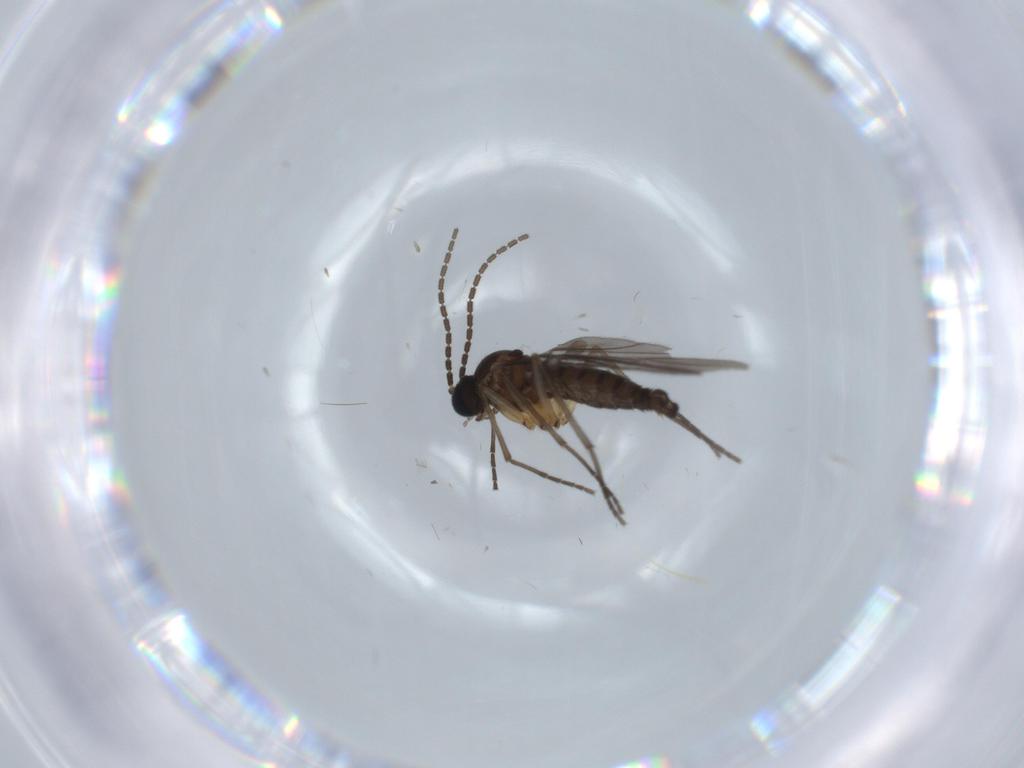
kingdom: Animalia
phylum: Arthropoda
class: Insecta
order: Diptera
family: Sciaridae
